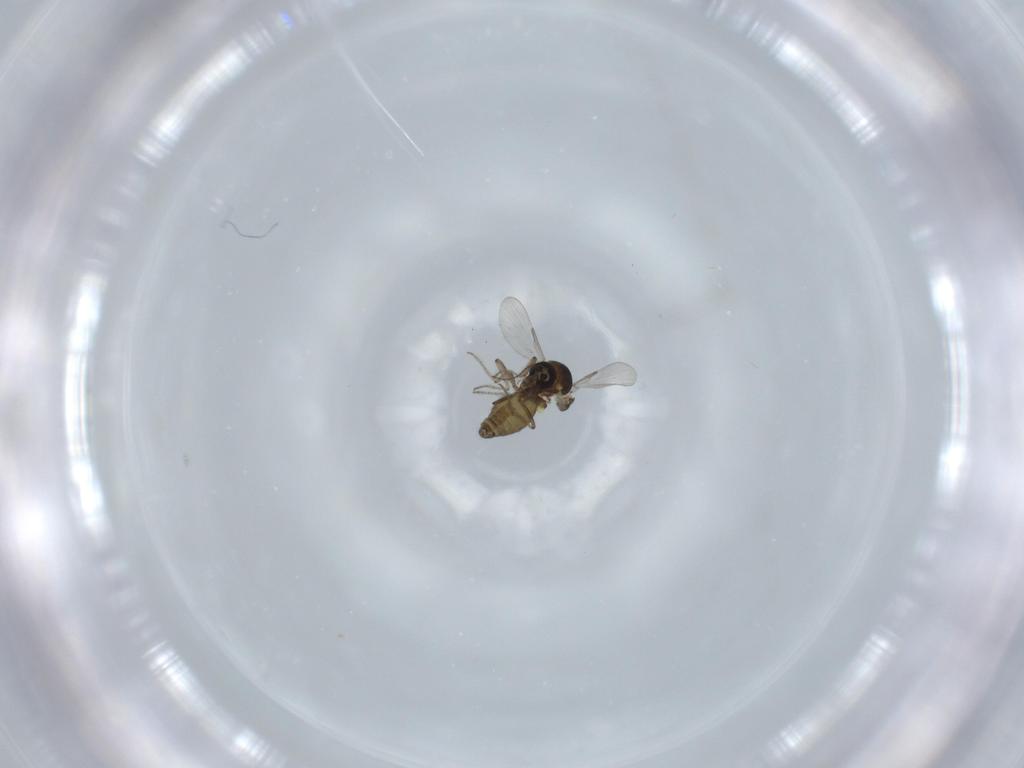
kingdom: Animalia
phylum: Arthropoda
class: Insecta
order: Diptera
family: Ceratopogonidae
